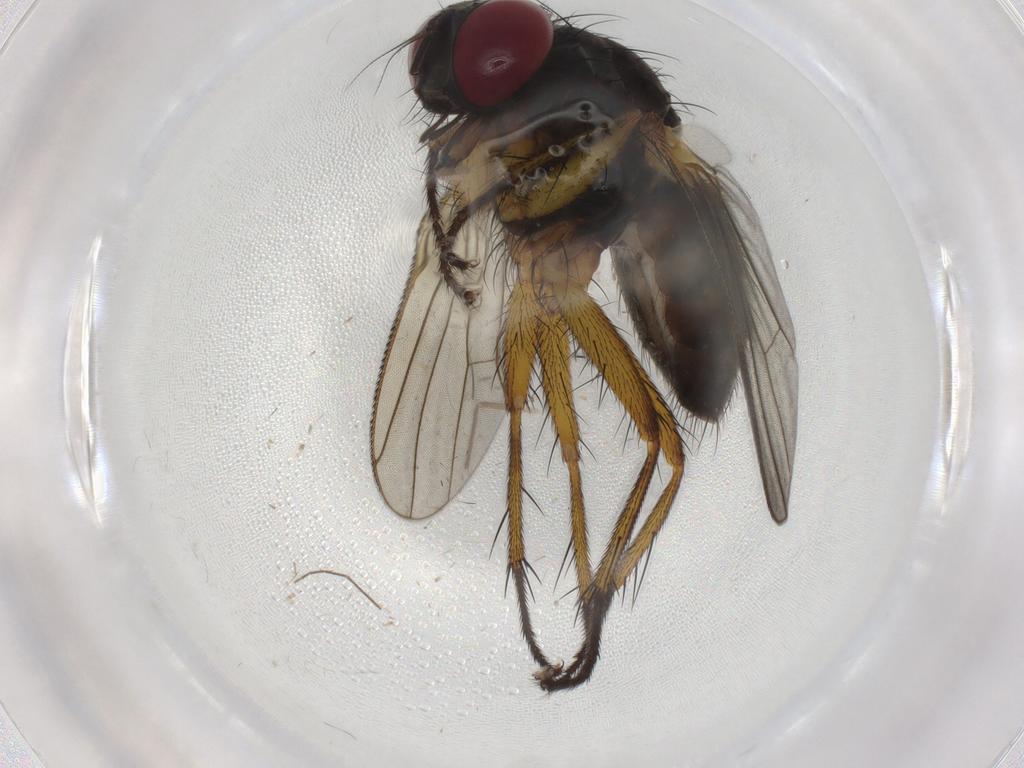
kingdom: Animalia
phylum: Arthropoda
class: Insecta
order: Diptera
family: Muscidae
